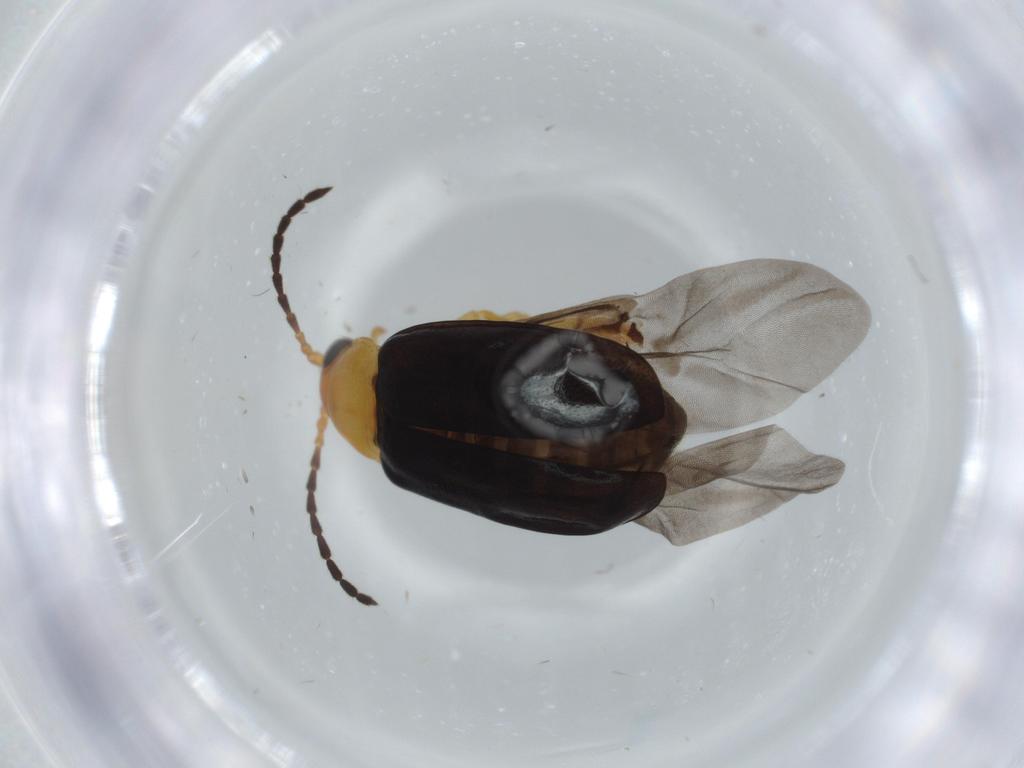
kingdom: Animalia
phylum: Arthropoda
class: Insecta
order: Coleoptera
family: Chrysomelidae
